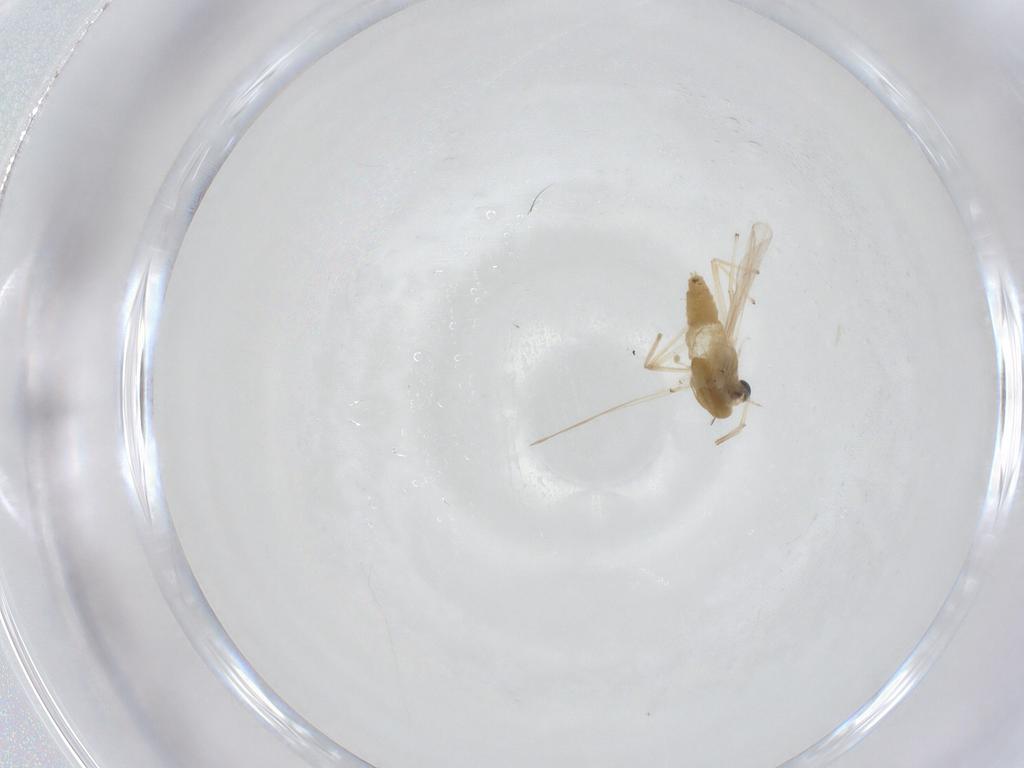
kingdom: Animalia
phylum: Arthropoda
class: Insecta
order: Diptera
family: Chironomidae
